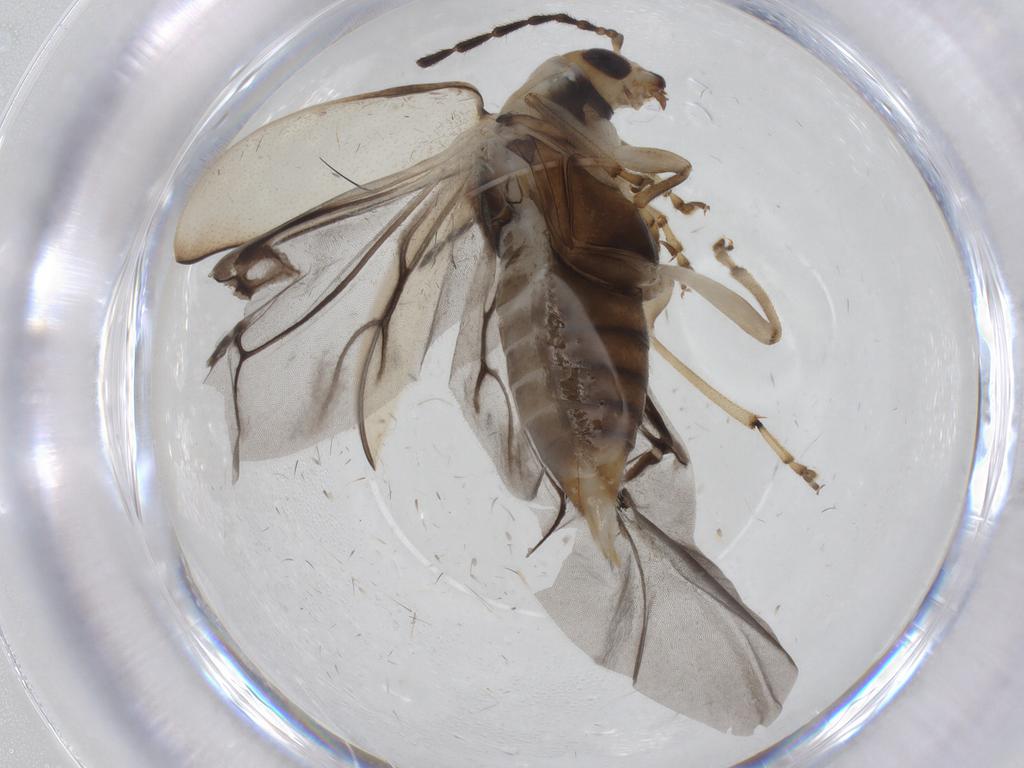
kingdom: Animalia
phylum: Arthropoda
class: Insecta
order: Coleoptera
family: Chrysomelidae
